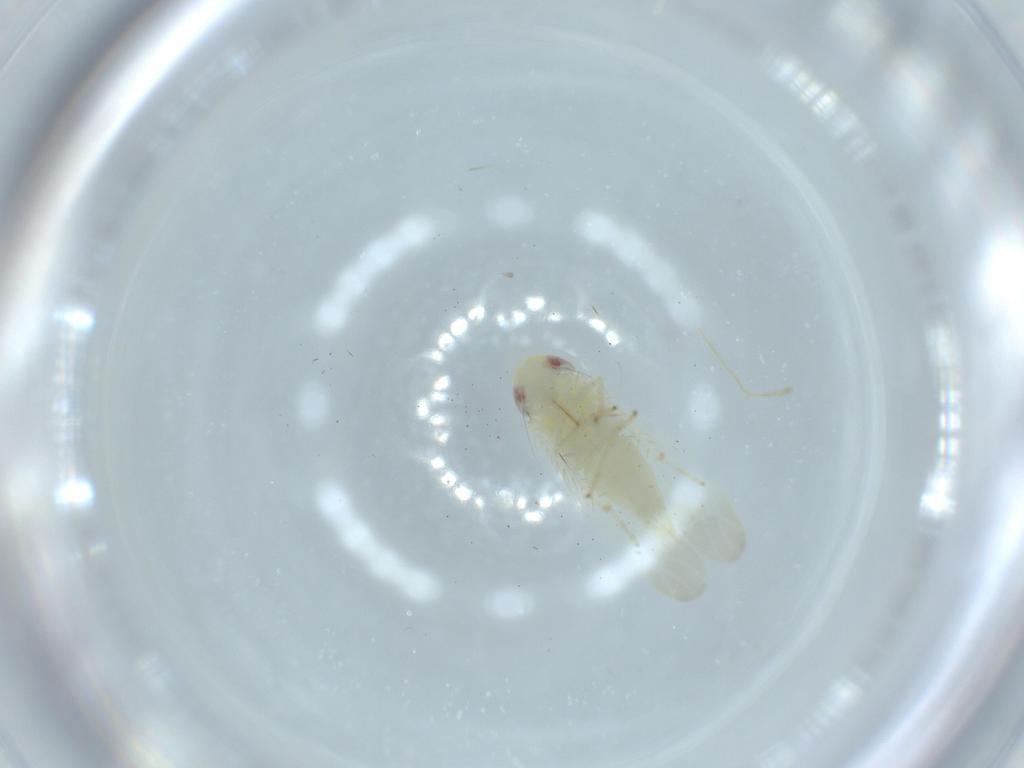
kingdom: Animalia
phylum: Arthropoda
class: Insecta
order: Hemiptera
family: Cicadellidae
